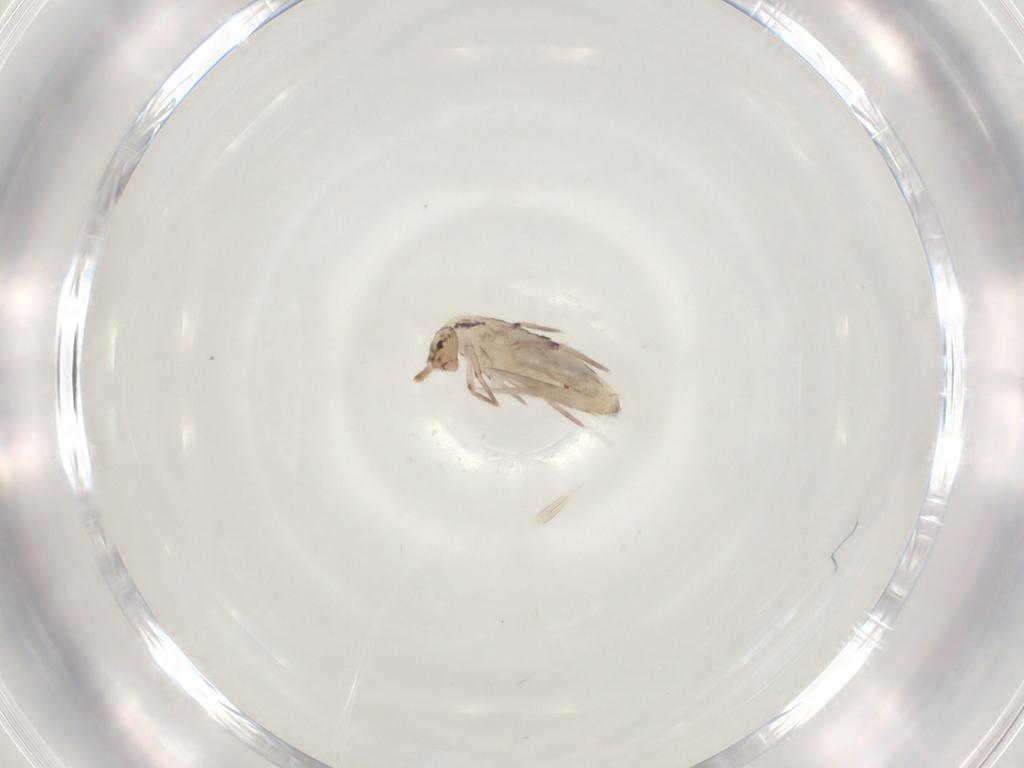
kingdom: Animalia
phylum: Arthropoda
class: Collembola
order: Entomobryomorpha
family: Entomobryidae
